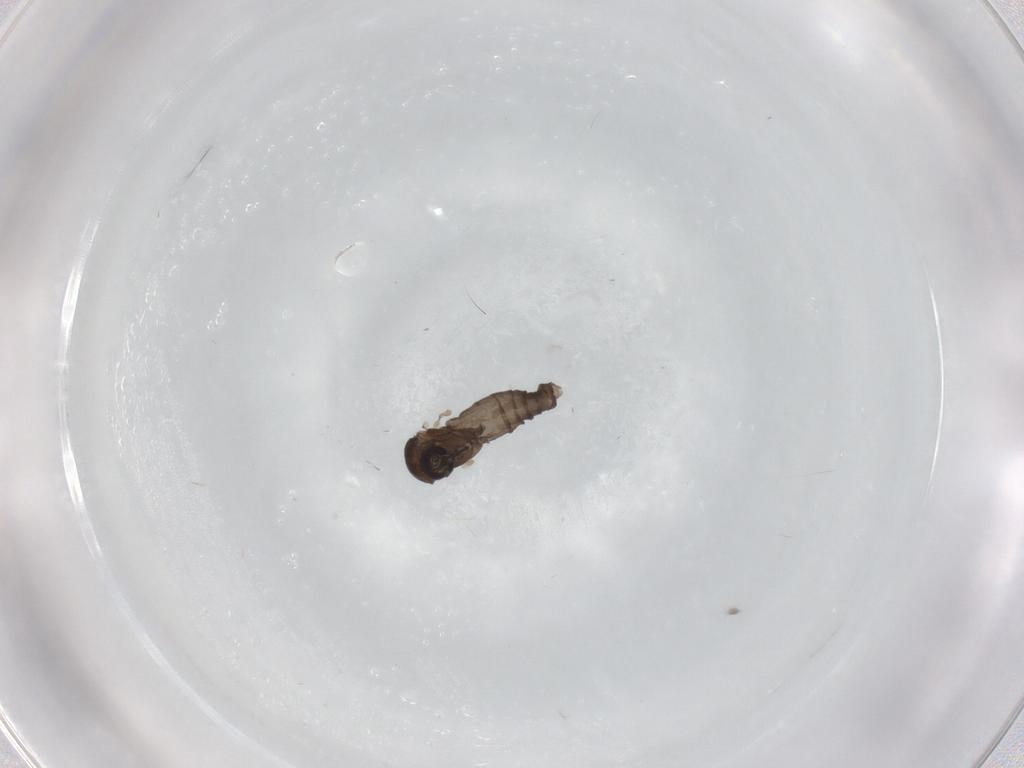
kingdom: Animalia
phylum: Arthropoda
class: Insecta
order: Diptera
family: Ceratopogonidae
